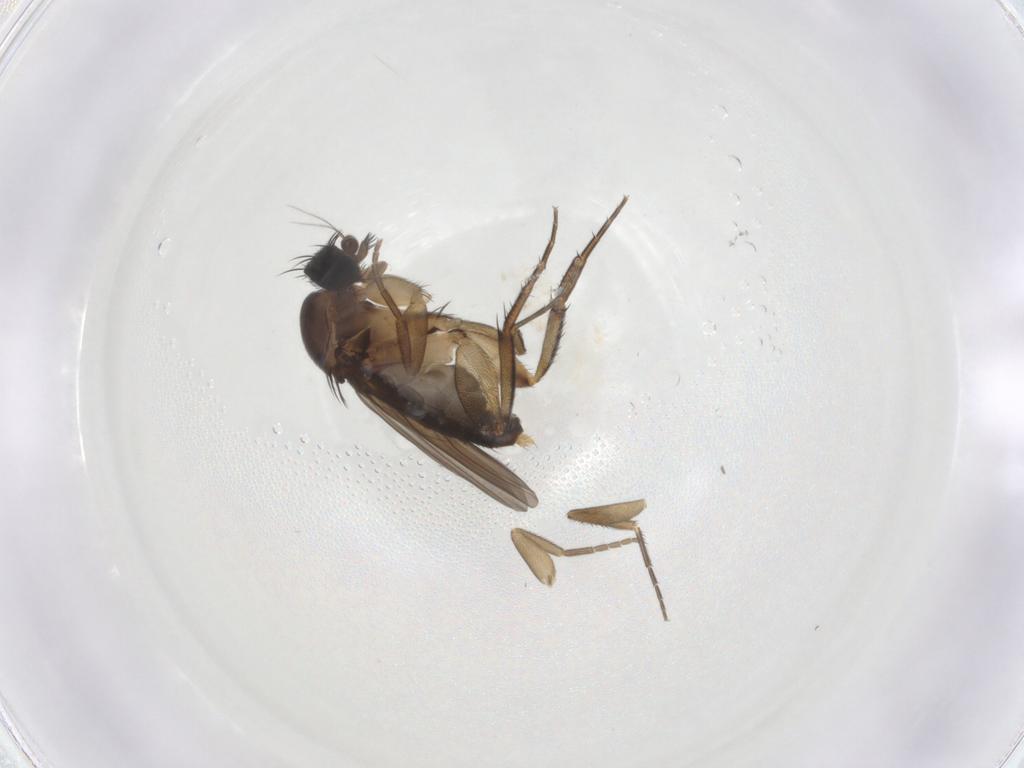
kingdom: Animalia
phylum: Arthropoda
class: Insecta
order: Diptera
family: Phoridae
